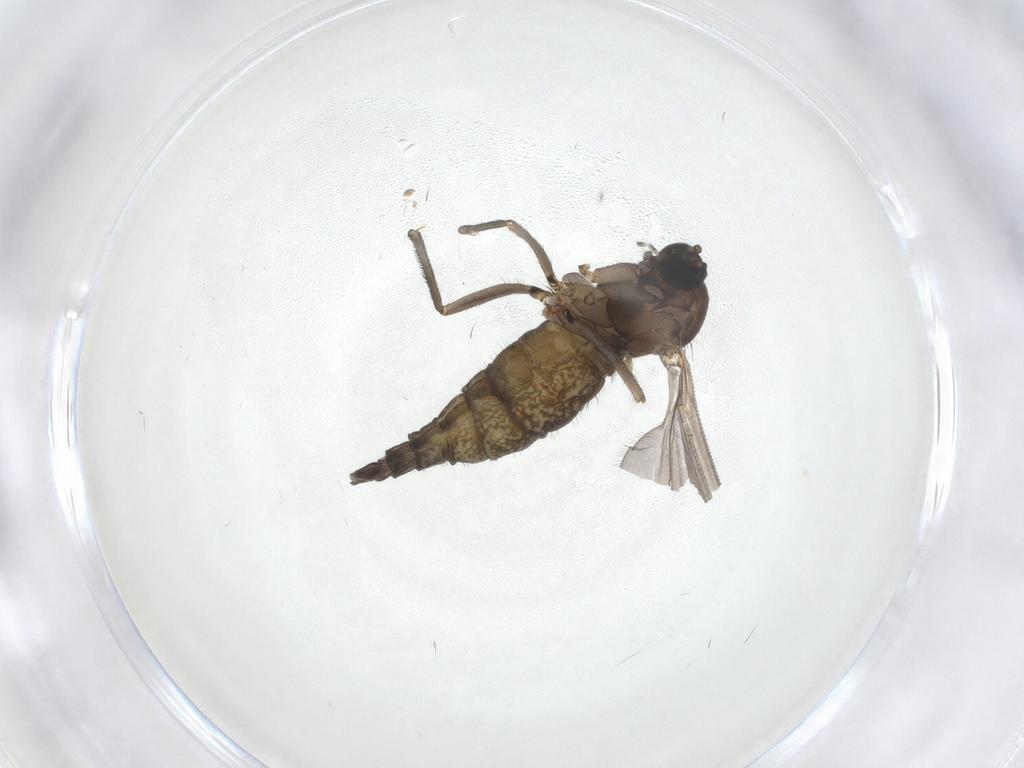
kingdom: Animalia
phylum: Arthropoda
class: Insecta
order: Diptera
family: Sciaridae
